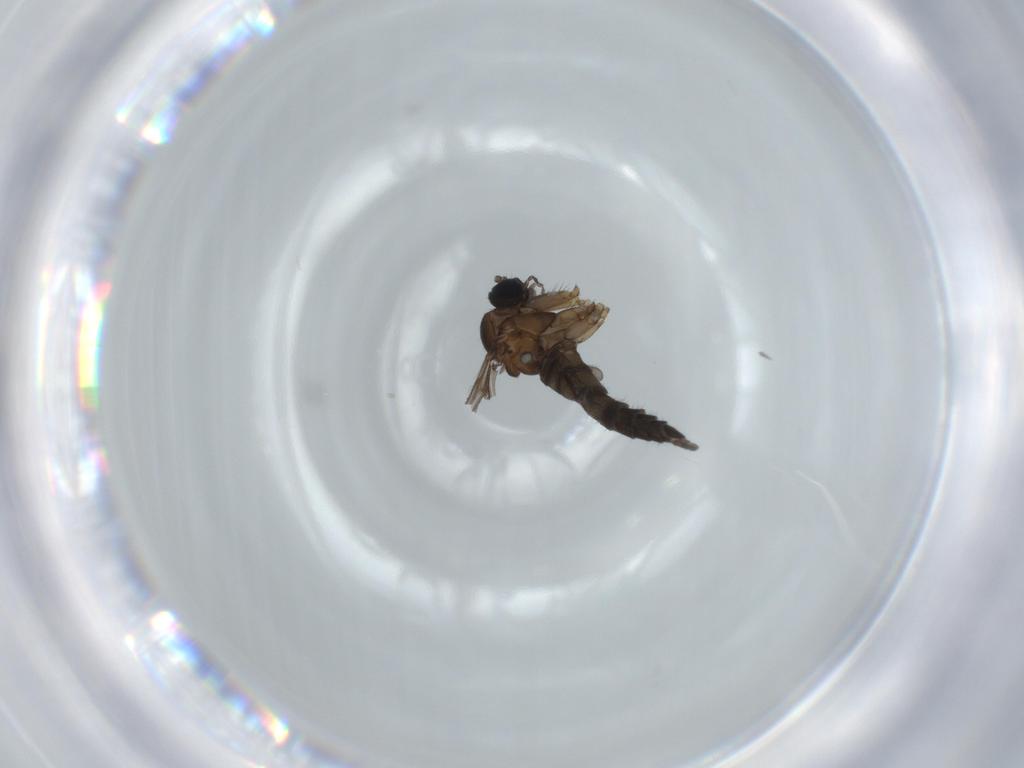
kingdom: Animalia
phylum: Arthropoda
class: Insecta
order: Diptera
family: Sciaridae
